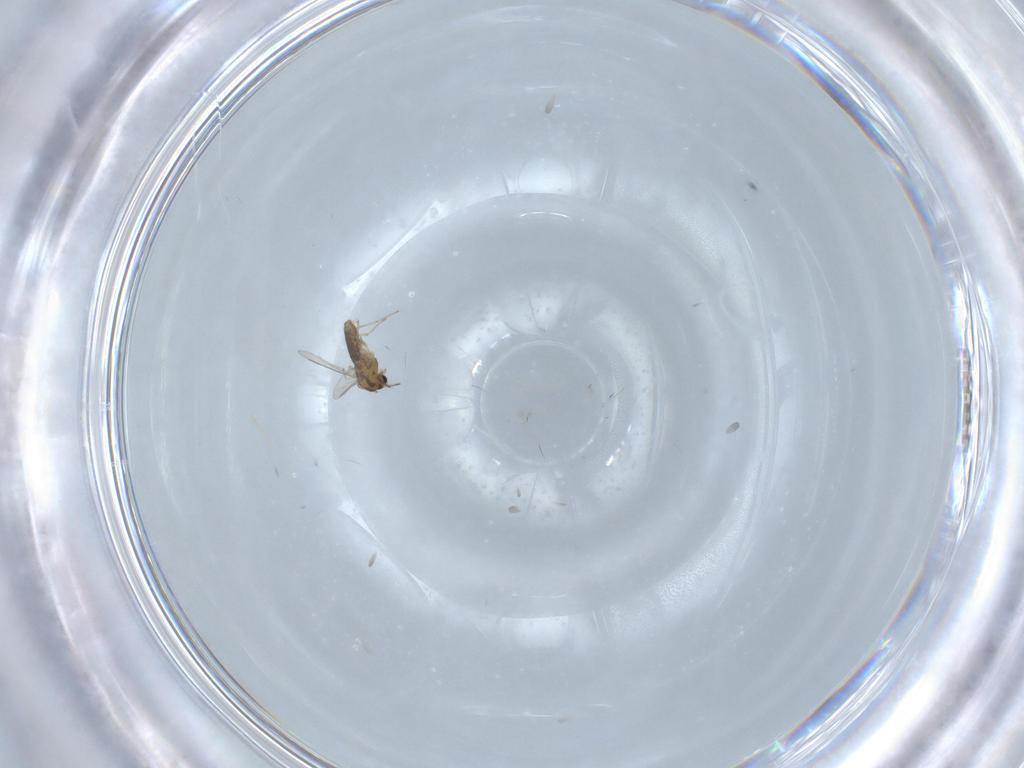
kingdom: Animalia
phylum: Arthropoda
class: Insecta
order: Diptera
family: Chironomidae
